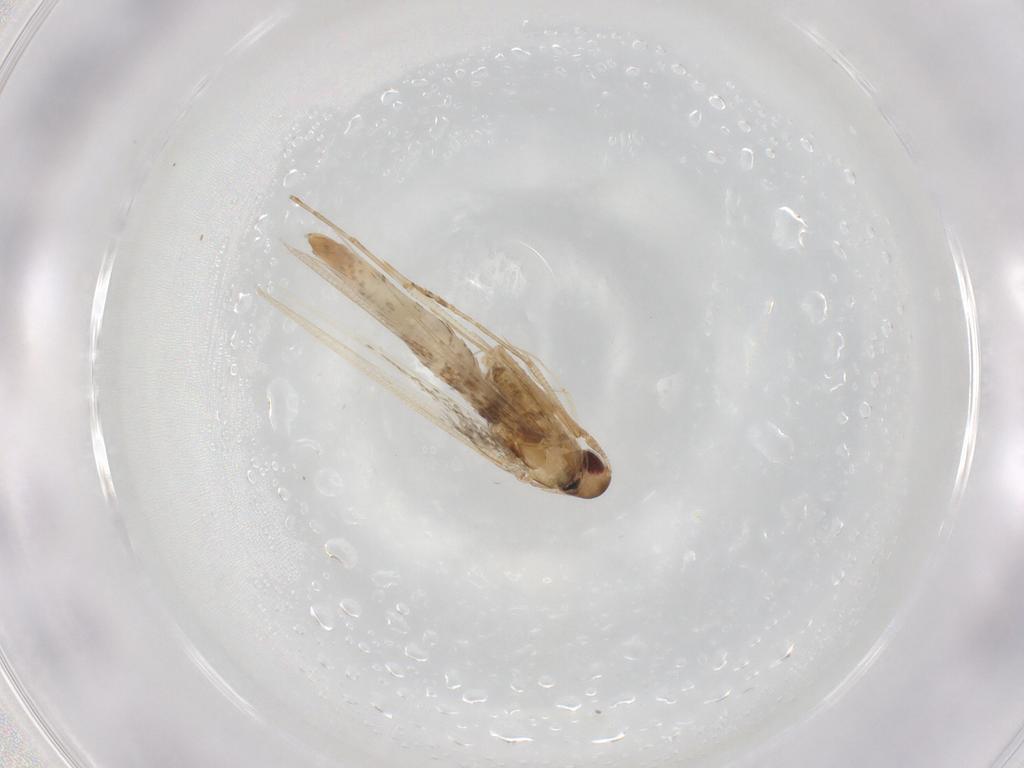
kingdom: Animalia
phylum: Arthropoda
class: Insecta
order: Lepidoptera
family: Cosmopterigidae
